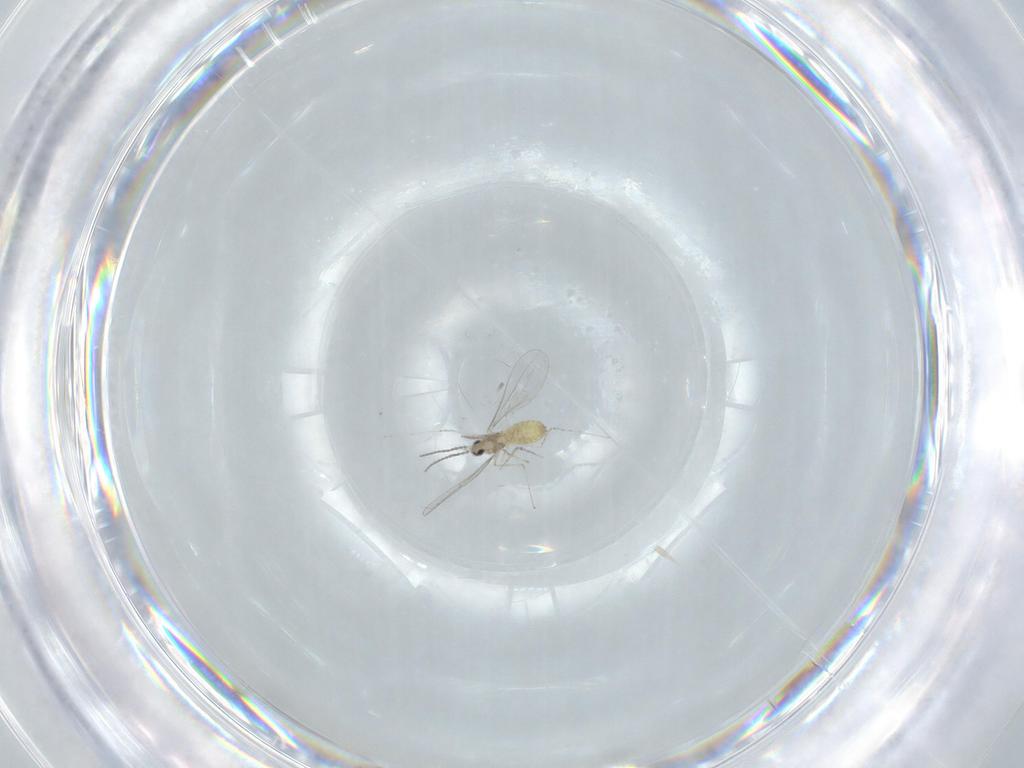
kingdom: Animalia
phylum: Arthropoda
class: Insecta
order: Diptera
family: Cecidomyiidae
